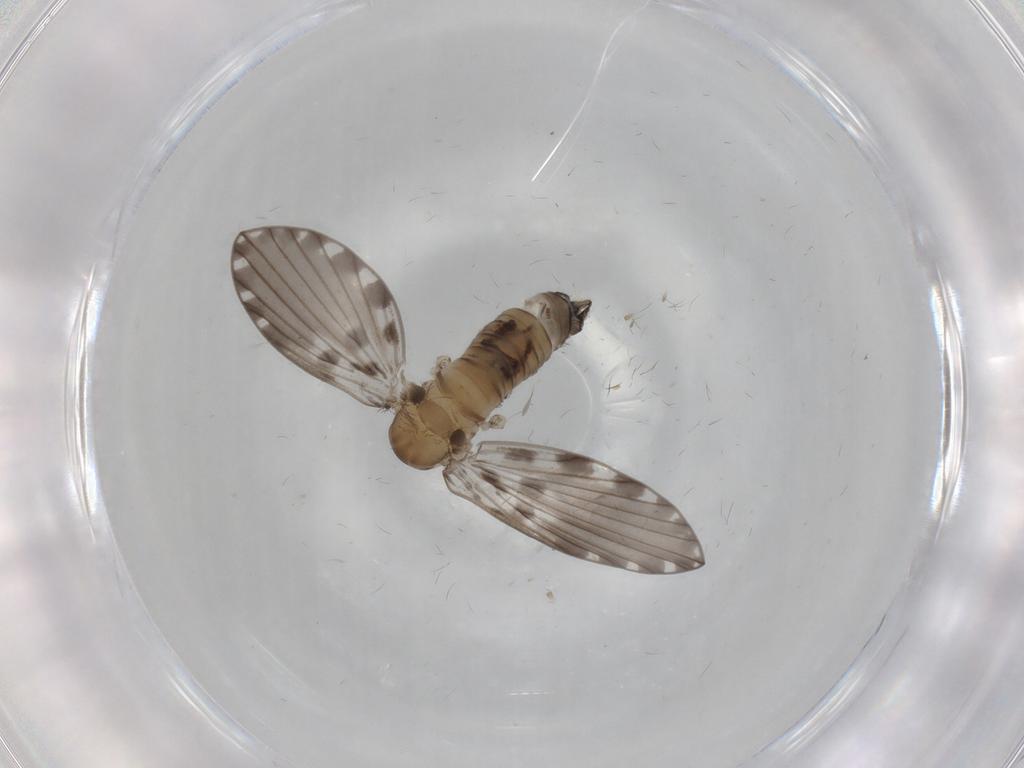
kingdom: Animalia
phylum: Arthropoda
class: Insecta
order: Diptera
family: Psychodidae
